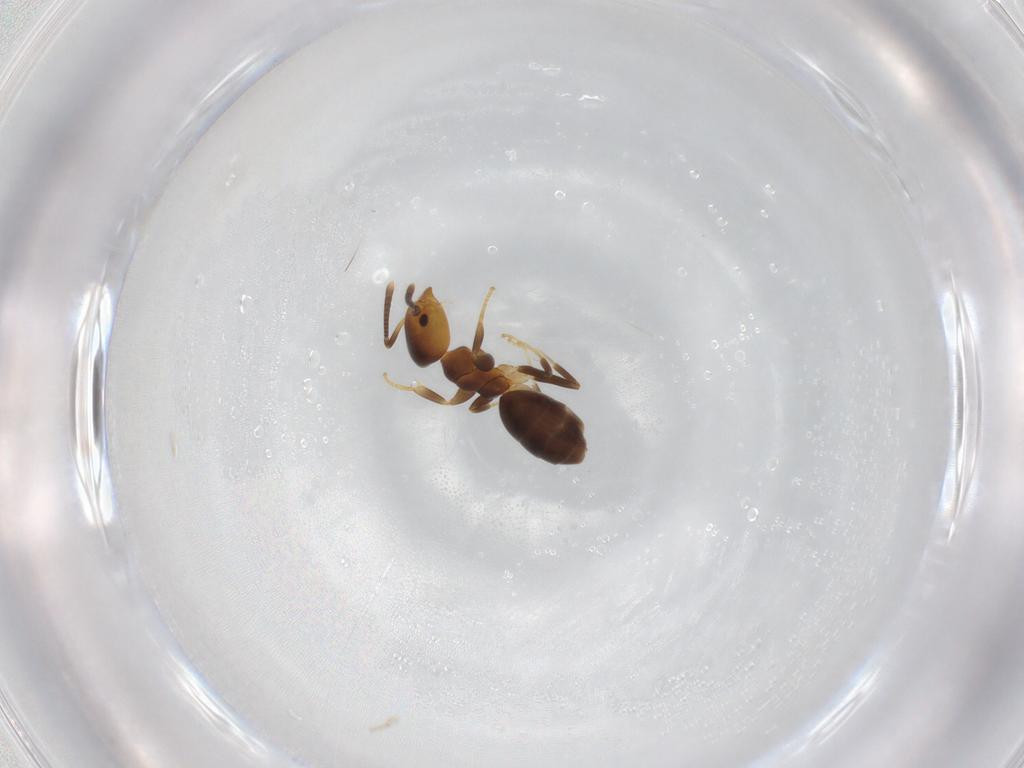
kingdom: Animalia
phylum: Arthropoda
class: Insecta
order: Hymenoptera
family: Formicidae
